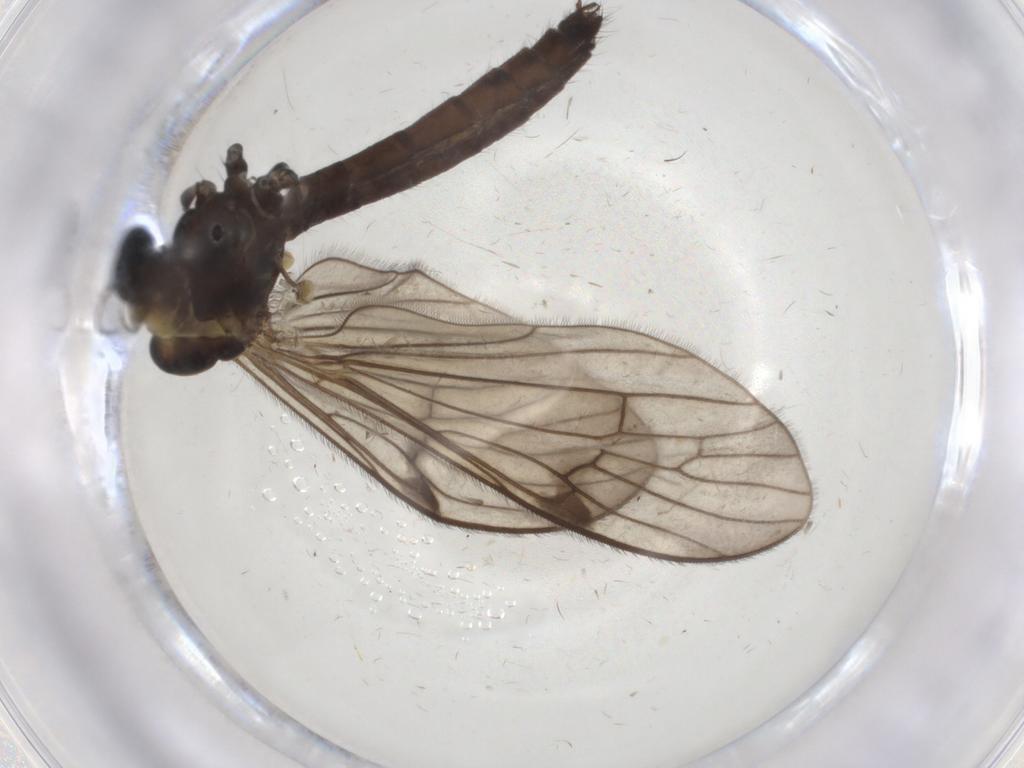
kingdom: Animalia
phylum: Arthropoda
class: Insecta
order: Diptera
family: Limoniidae
